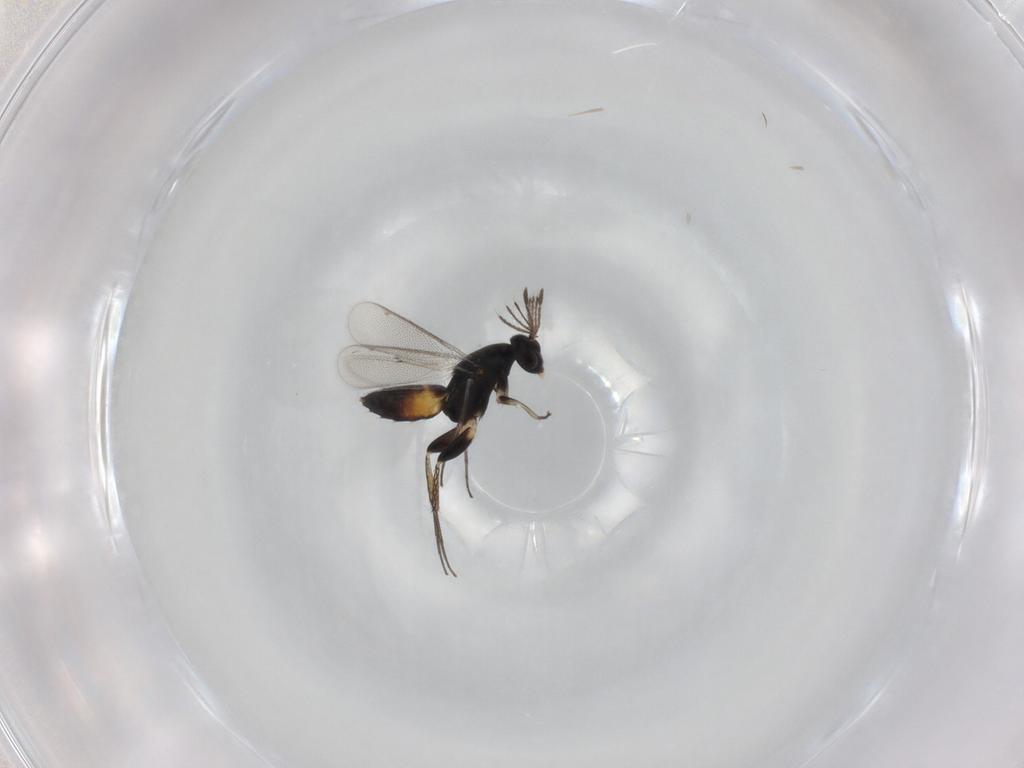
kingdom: Animalia
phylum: Arthropoda
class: Insecta
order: Hymenoptera
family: Eulophidae
